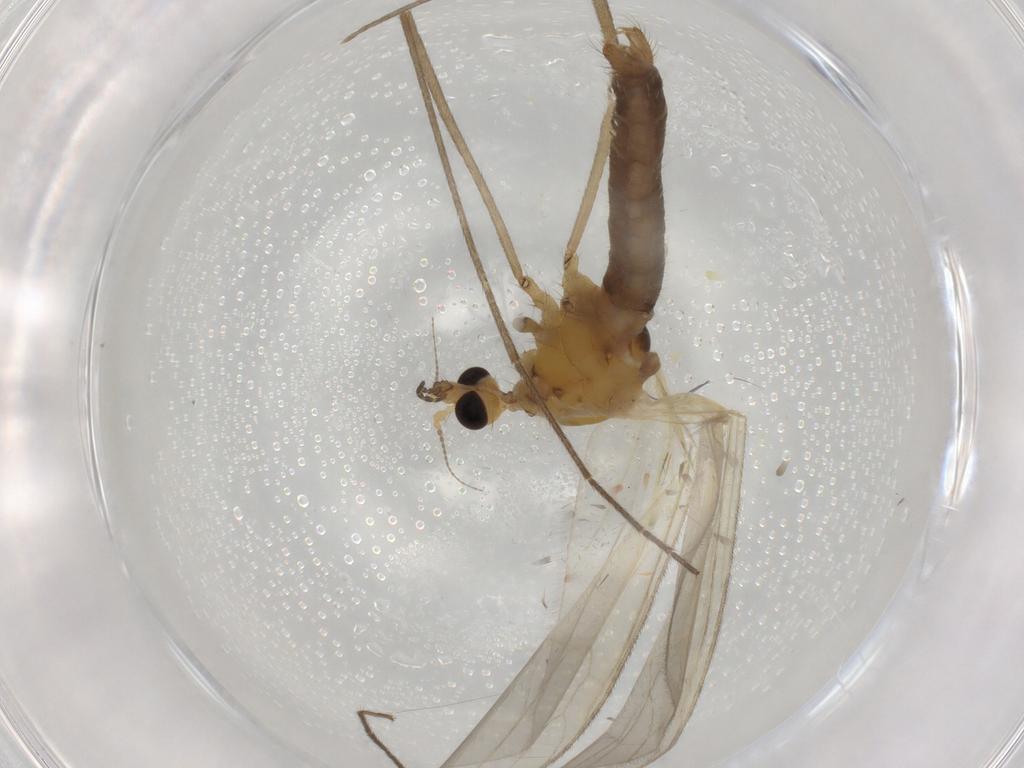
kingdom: Animalia
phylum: Arthropoda
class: Insecta
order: Diptera
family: Limoniidae
